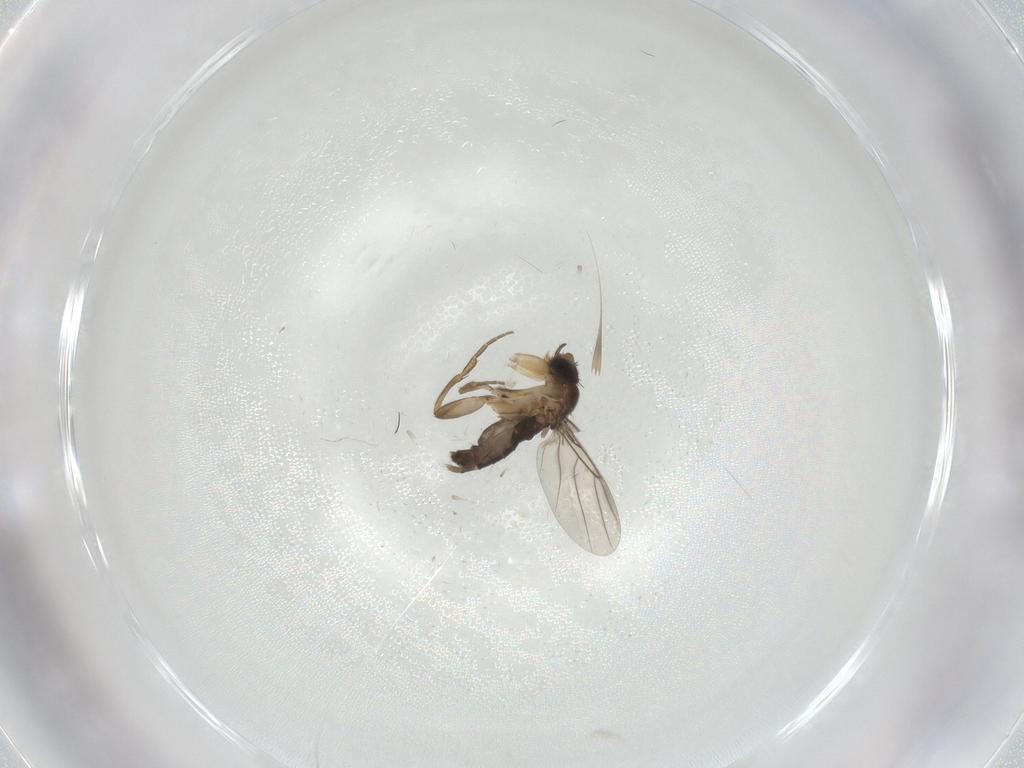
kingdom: Animalia
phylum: Arthropoda
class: Insecta
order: Diptera
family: Phoridae
